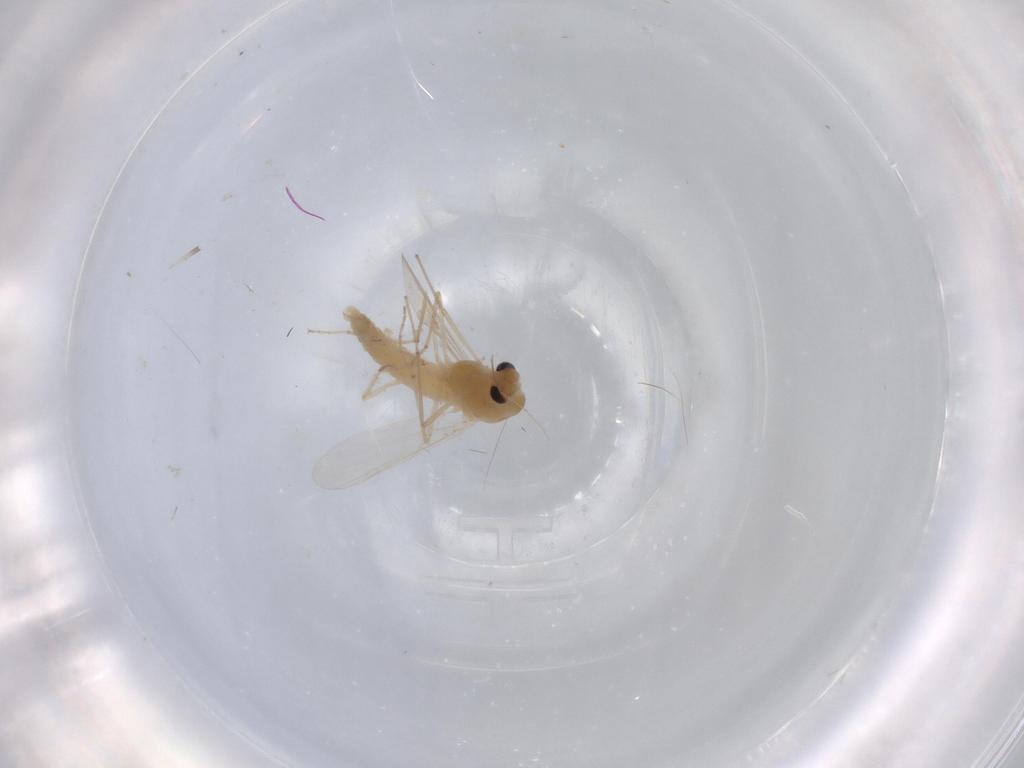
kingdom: Animalia
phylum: Arthropoda
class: Insecta
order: Diptera
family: Chironomidae
